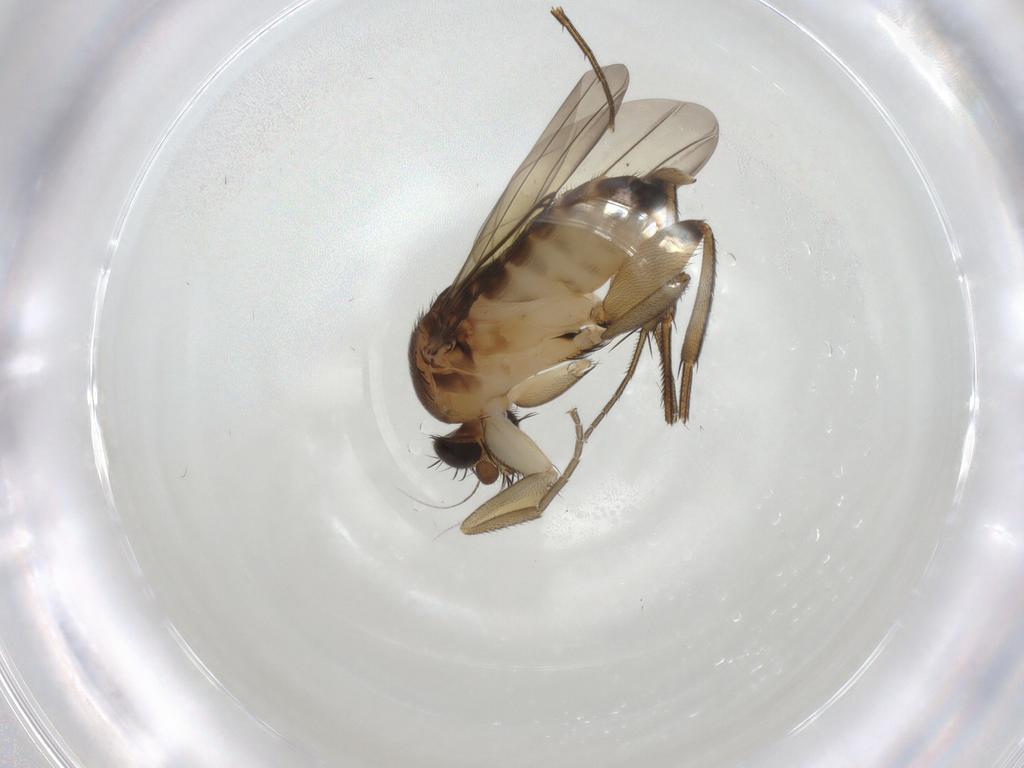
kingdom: Animalia
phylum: Arthropoda
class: Insecta
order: Diptera
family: Phoridae
